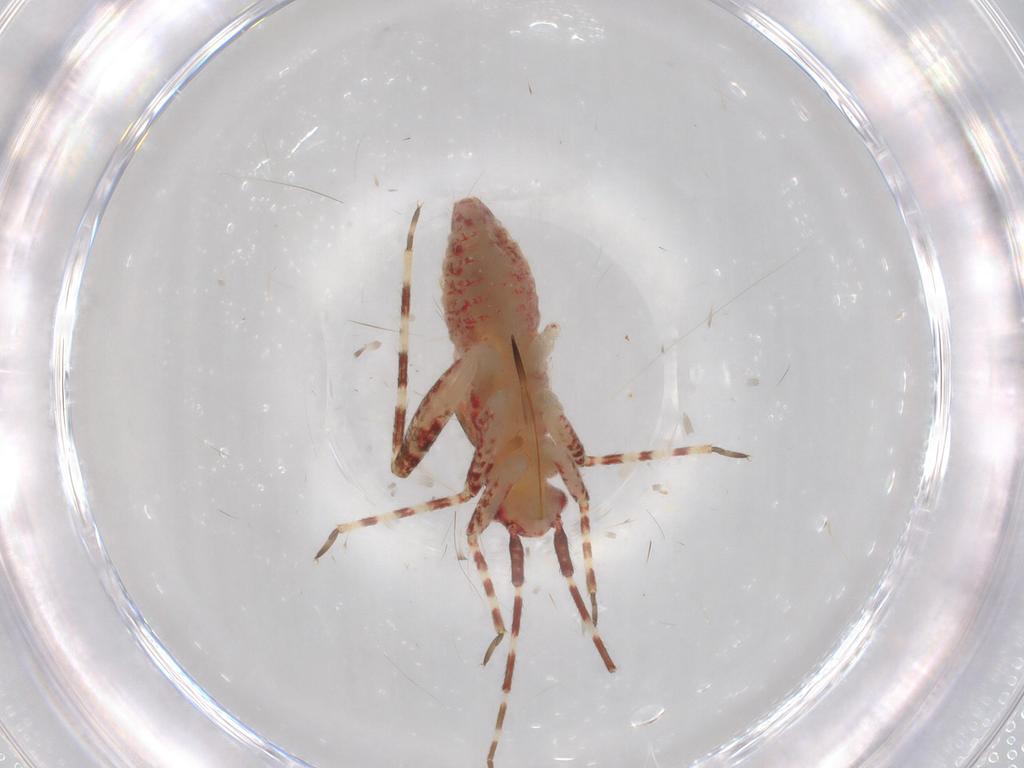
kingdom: Animalia
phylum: Arthropoda
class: Insecta
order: Hemiptera
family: Miridae
